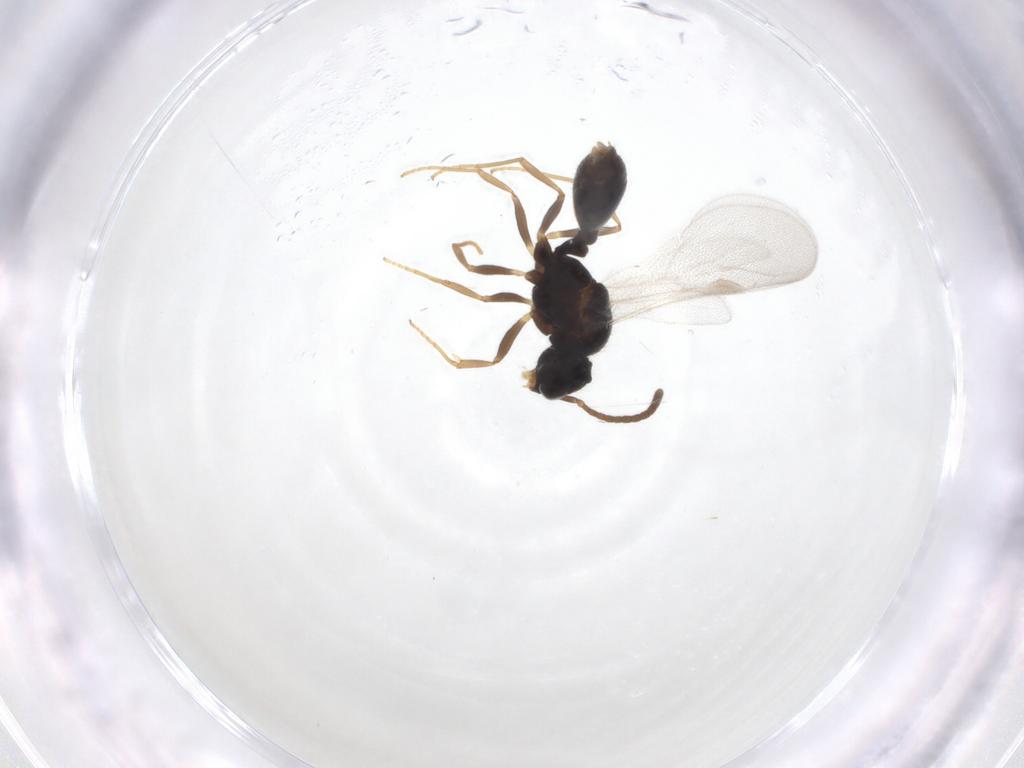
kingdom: Animalia
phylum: Arthropoda
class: Insecta
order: Hymenoptera
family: Formicidae
